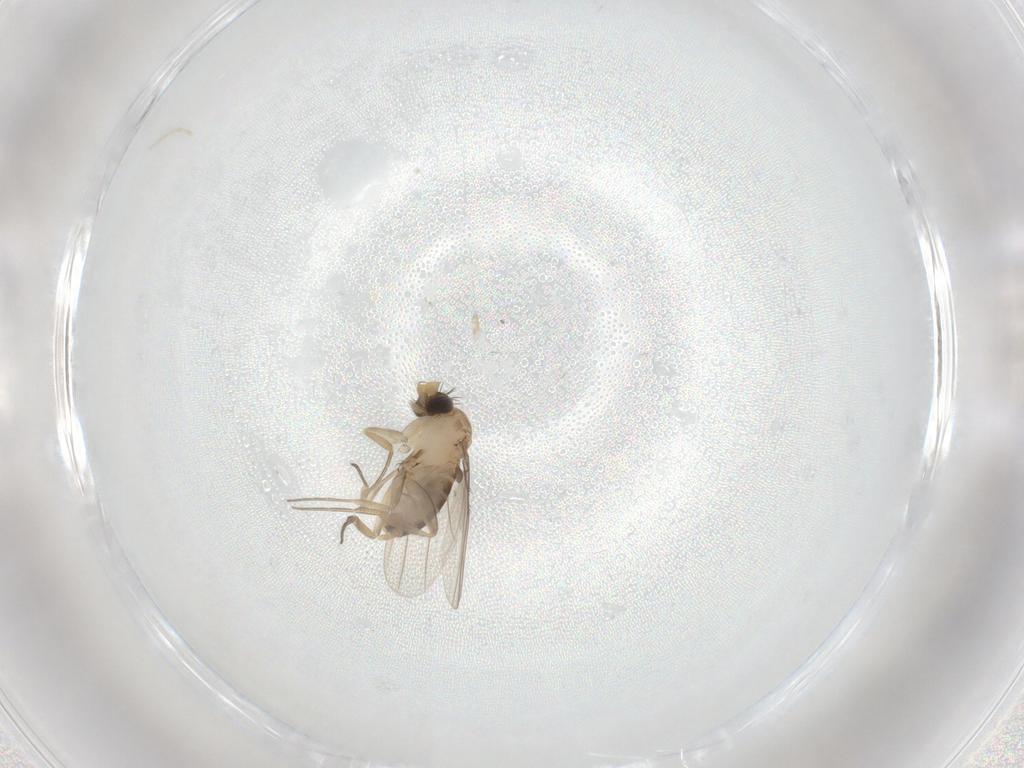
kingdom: Animalia
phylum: Arthropoda
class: Insecta
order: Diptera
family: Phoridae
